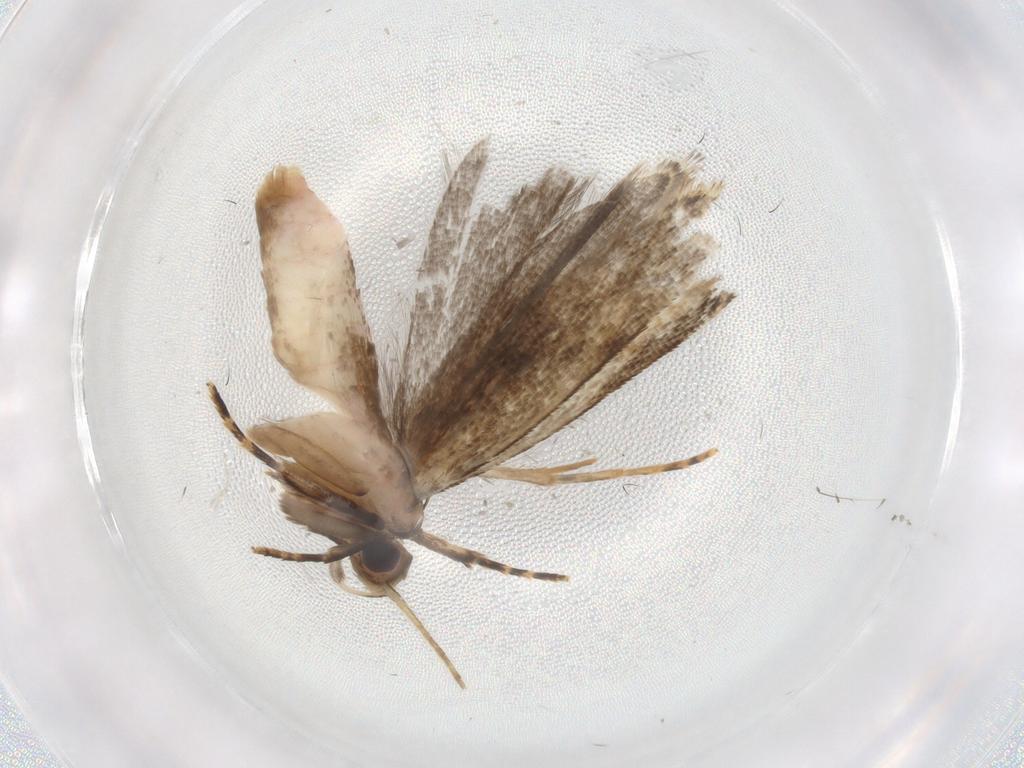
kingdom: Animalia
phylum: Arthropoda
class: Insecta
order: Lepidoptera
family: Gelechiidae
